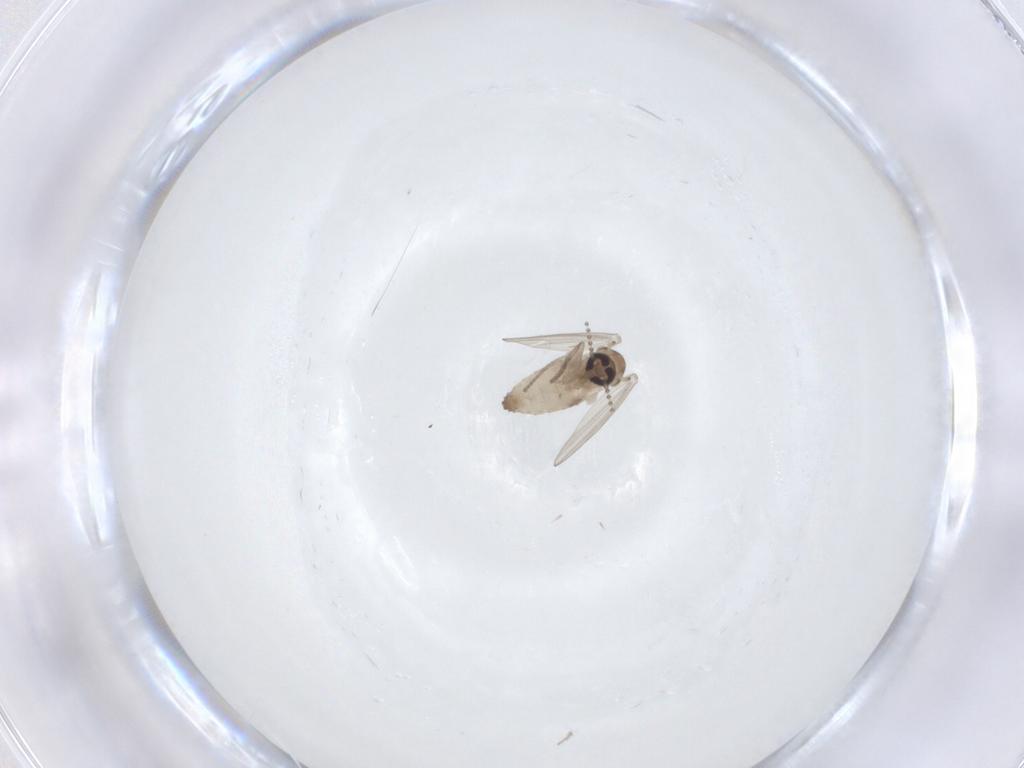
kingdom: Animalia
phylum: Arthropoda
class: Insecta
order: Diptera
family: Psychodidae
